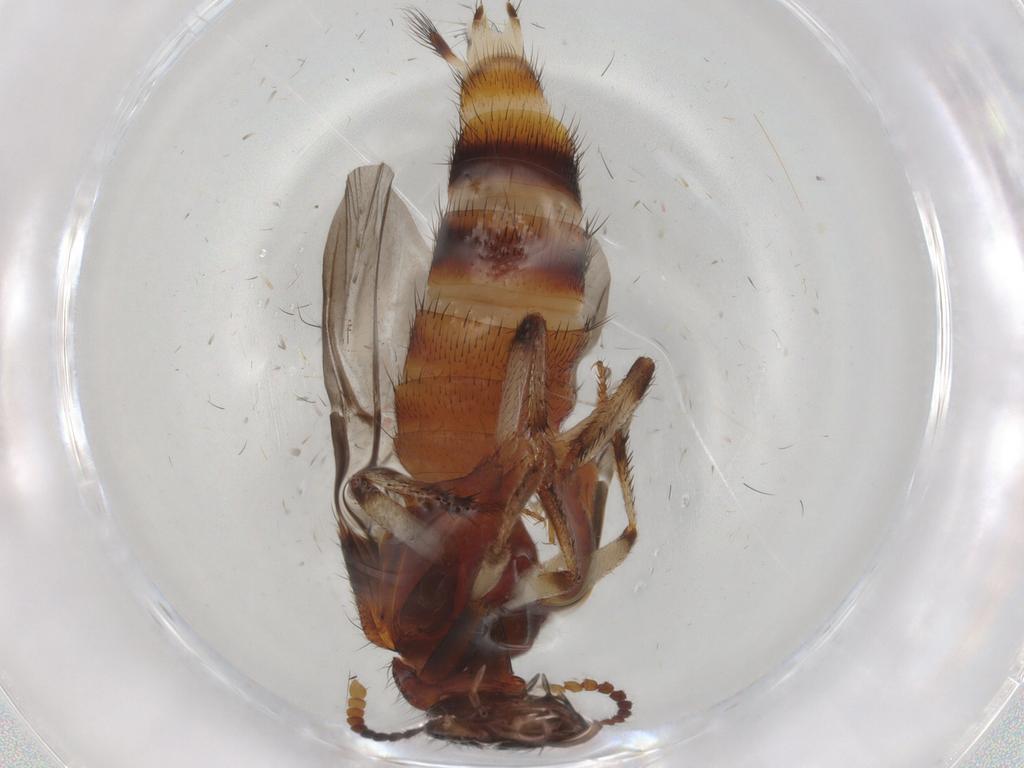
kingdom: Animalia
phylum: Arthropoda
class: Insecta
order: Coleoptera
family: Staphylinidae
